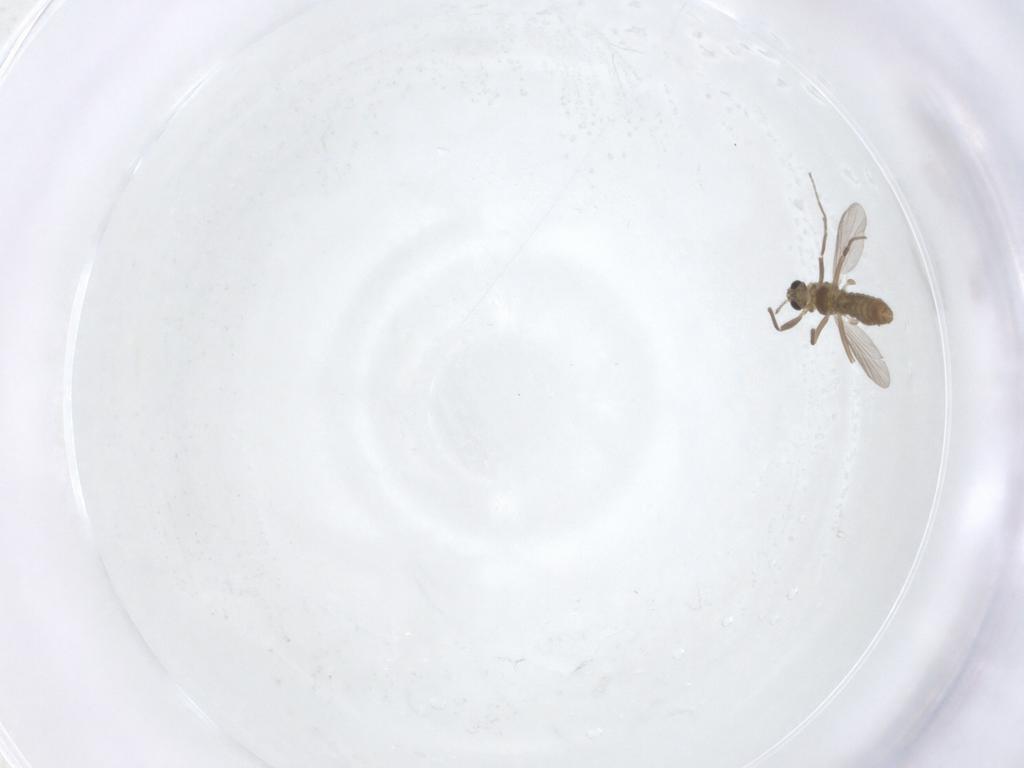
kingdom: Animalia
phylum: Arthropoda
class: Insecta
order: Diptera
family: Chironomidae
